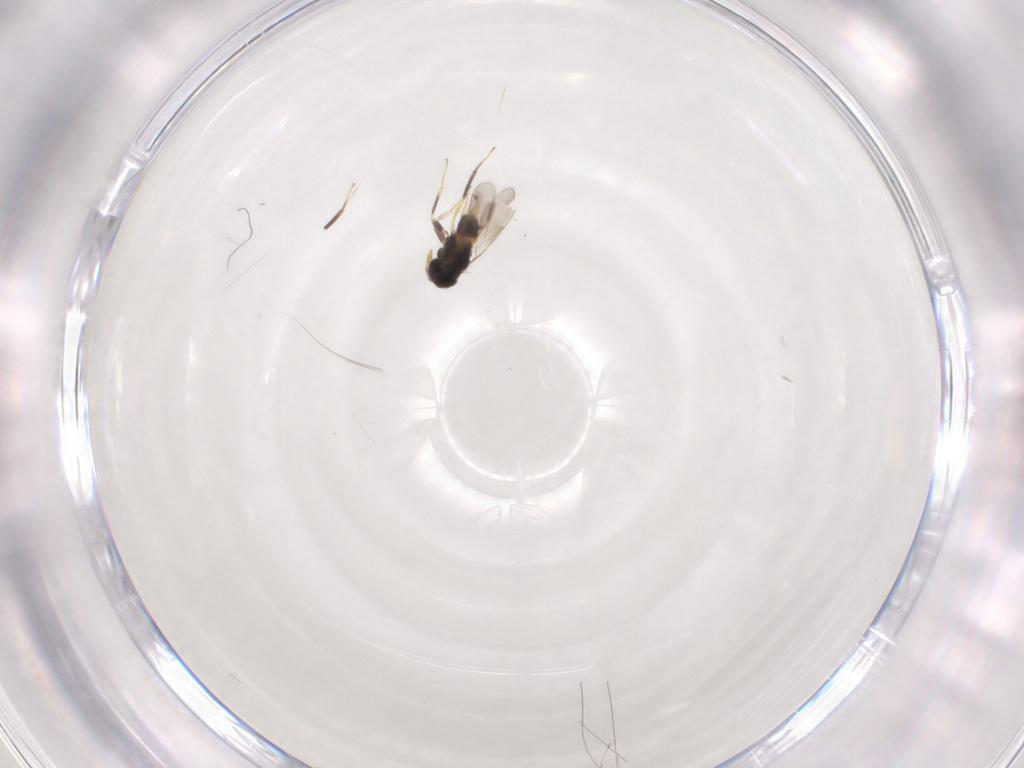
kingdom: Animalia
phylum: Arthropoda
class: Insecta
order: Hymenoptera
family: Aphelinidae
